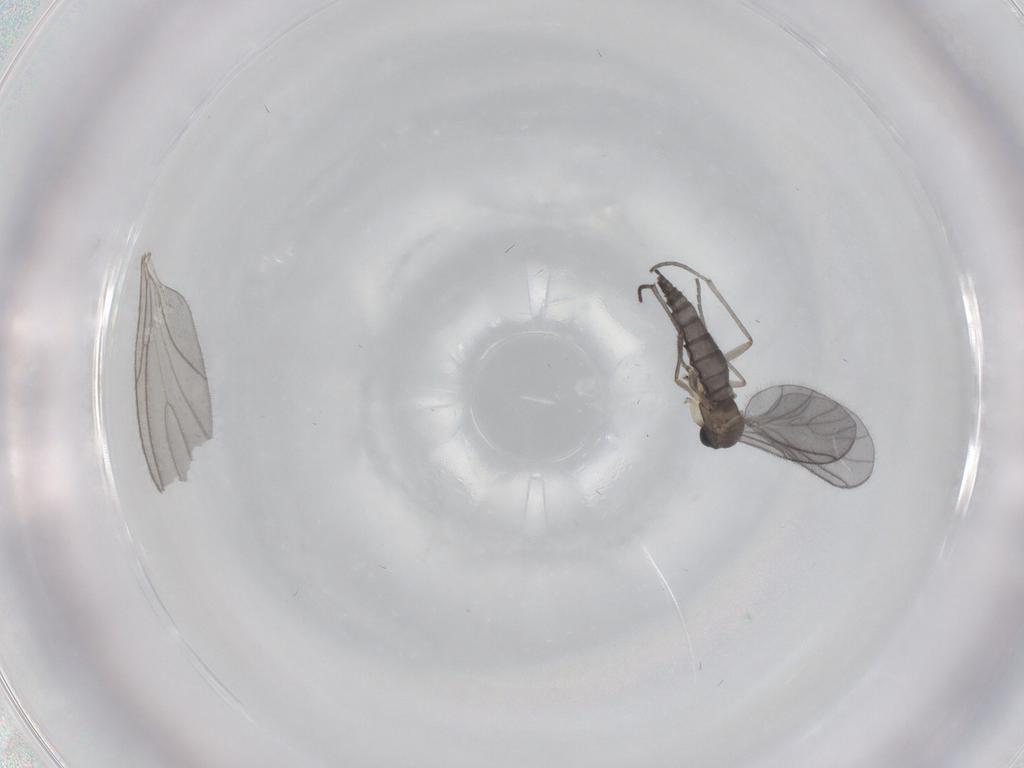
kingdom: Animalia
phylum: Arthropoda
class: Insecta
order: Diptera
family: Sciaridae
